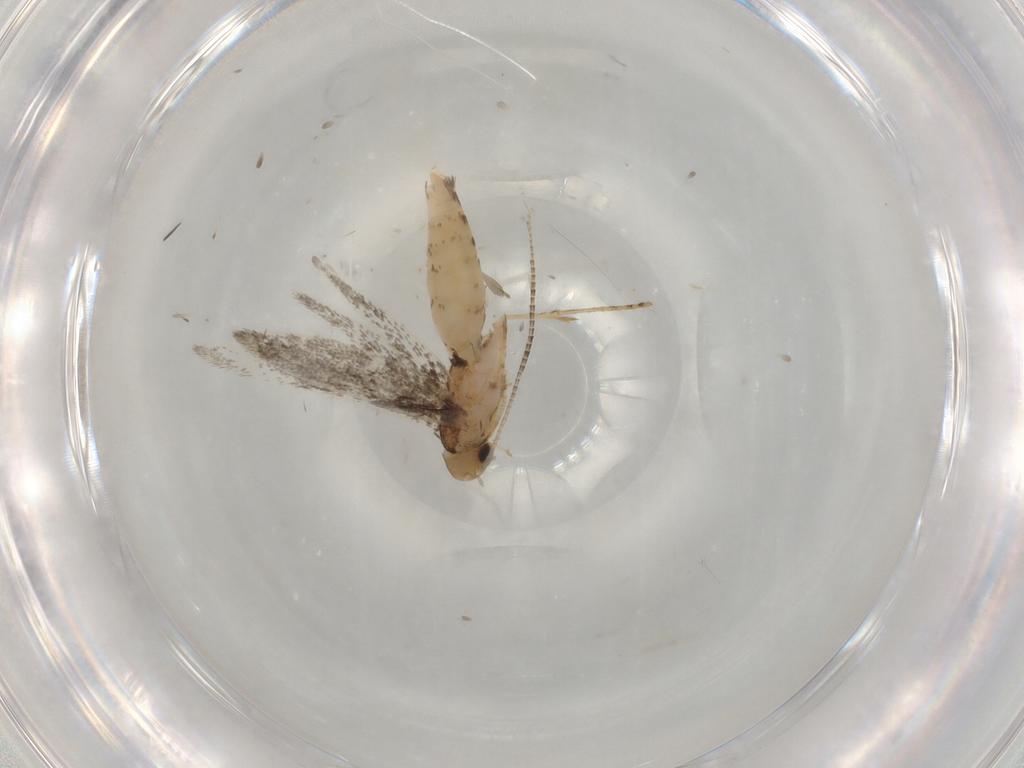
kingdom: Animalia
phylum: Arthropoda
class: Insecta
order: Lepidoptera
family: Gracillariidae
